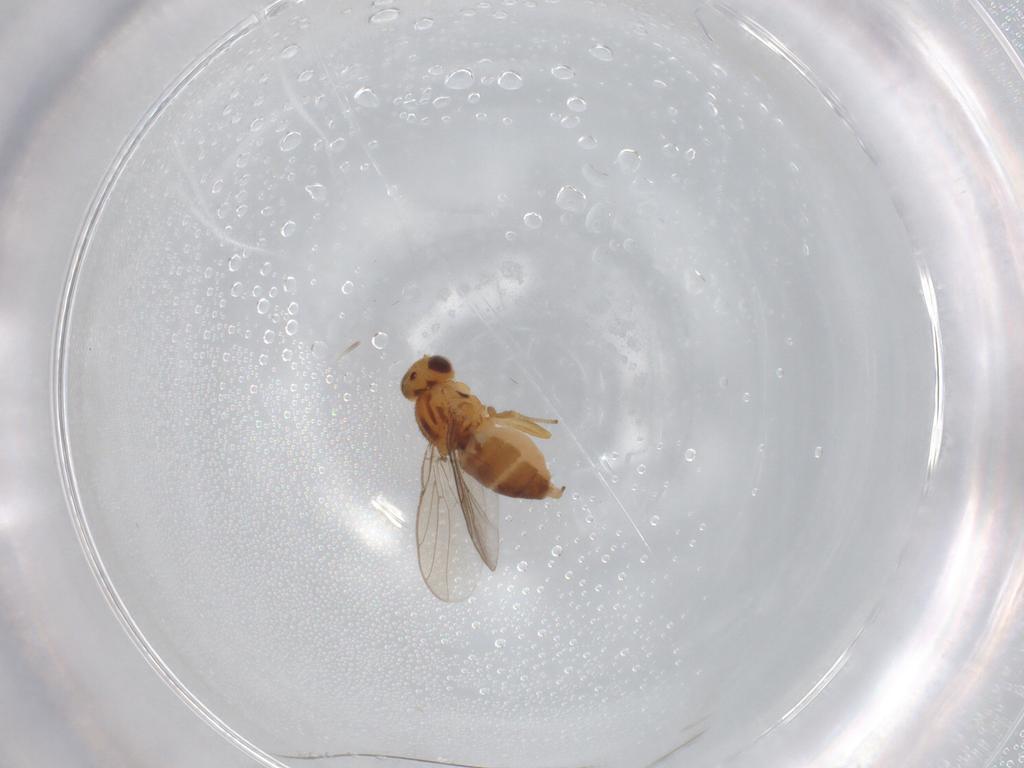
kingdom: Animalia
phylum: Arthropoda
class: Insecta
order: Diptera
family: Chloropidae
